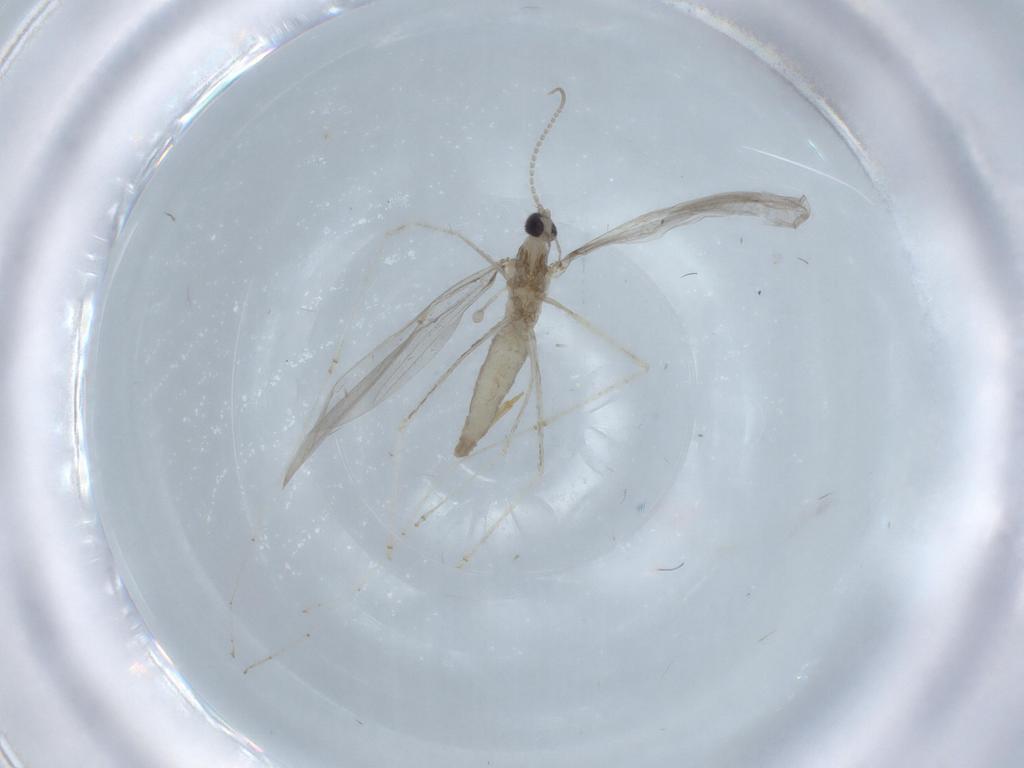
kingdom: Animalia
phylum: Arthropoda
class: Insecta
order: Diptera
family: Cecidomyiidae
